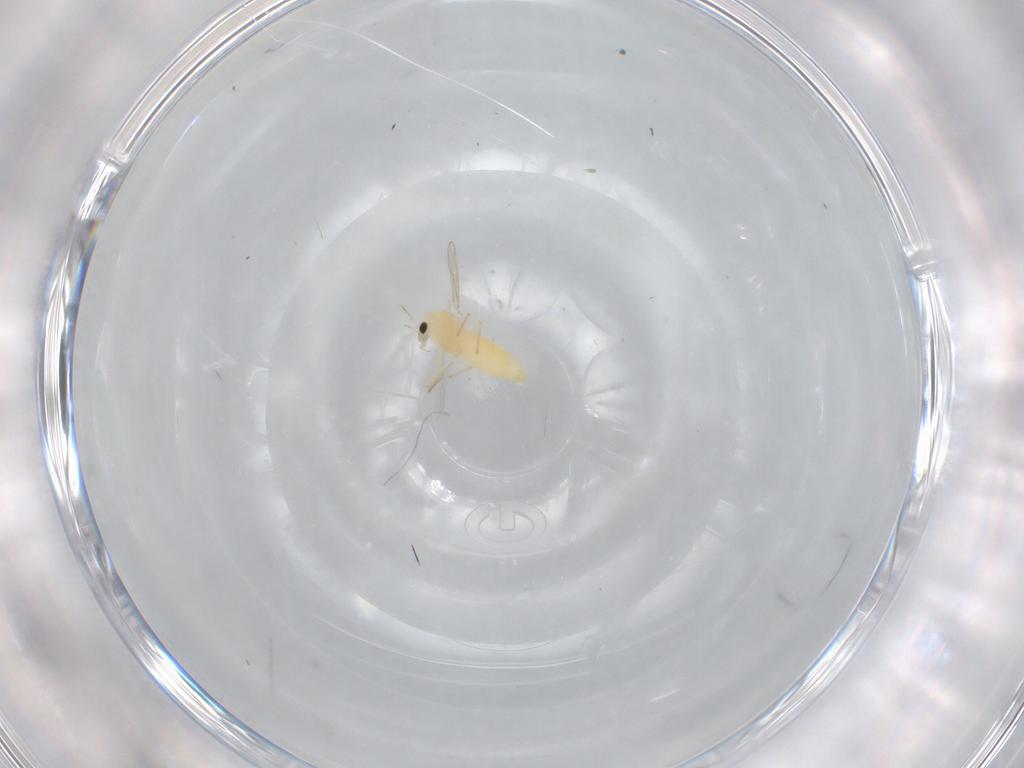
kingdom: Animalia
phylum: Arthropoda
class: Insecta
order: Diptera
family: Chironomidae
